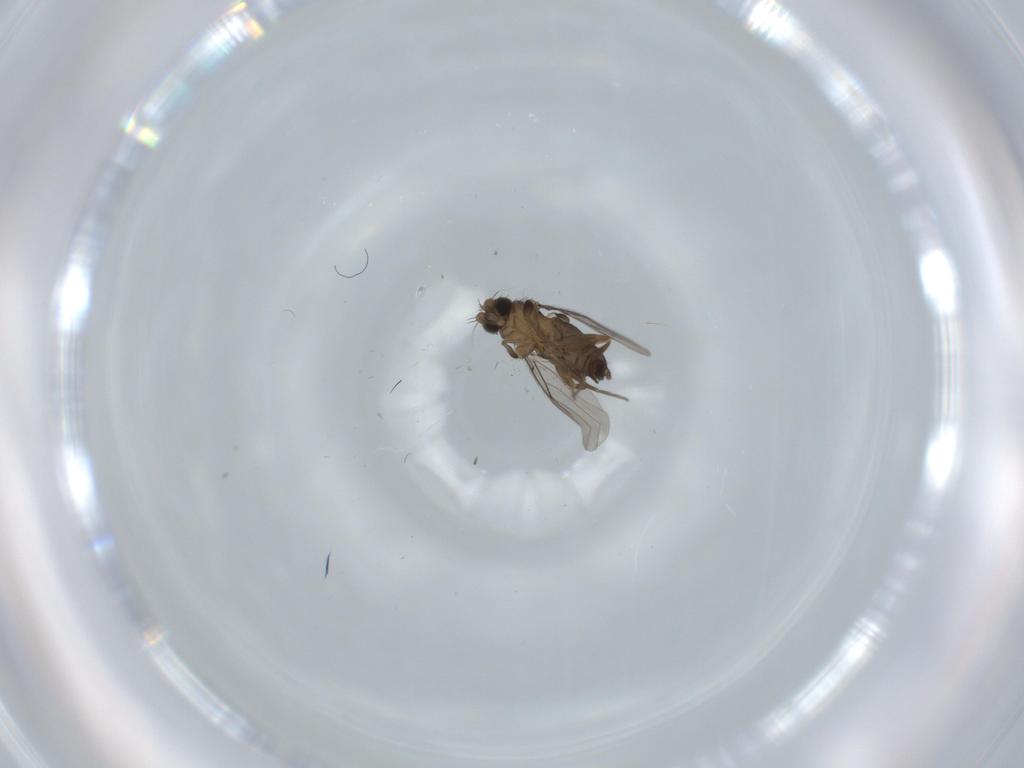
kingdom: Animalia
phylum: Arthropoda
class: Insecta
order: Diptera
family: Phoridae
